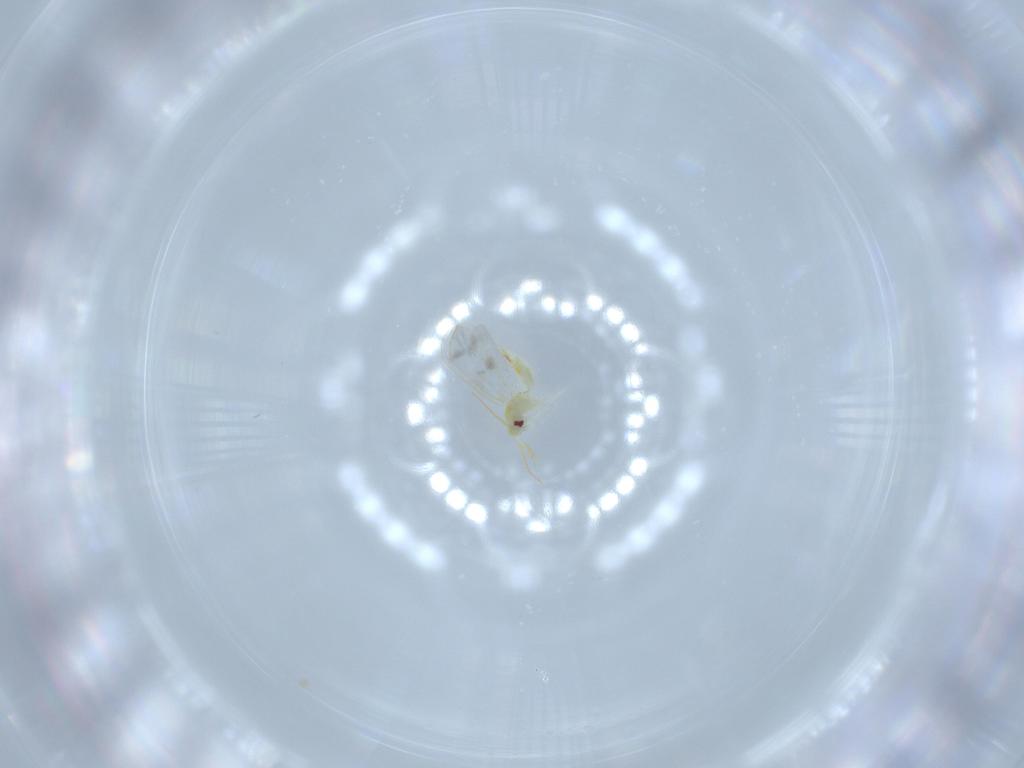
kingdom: Animalia
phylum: Arthropoda
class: Insecta
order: Hemiptera
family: Aleyrodidae
